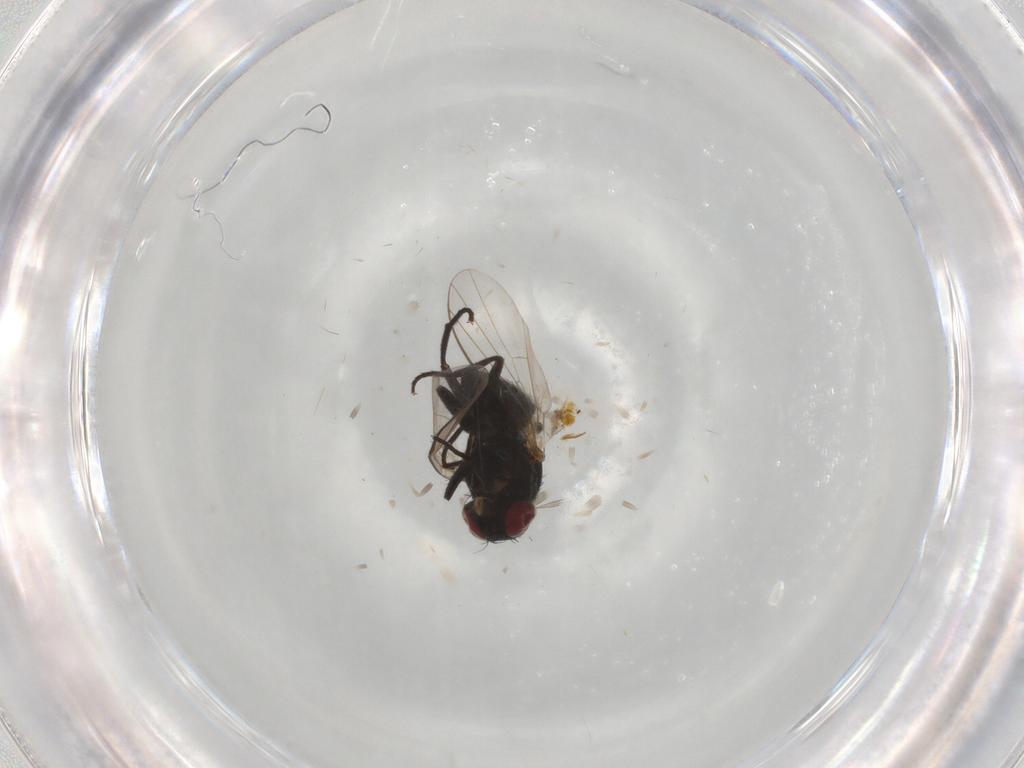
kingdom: Animalia
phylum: Arthropoda
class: Insecta
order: Diptera
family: Agromyzidae
